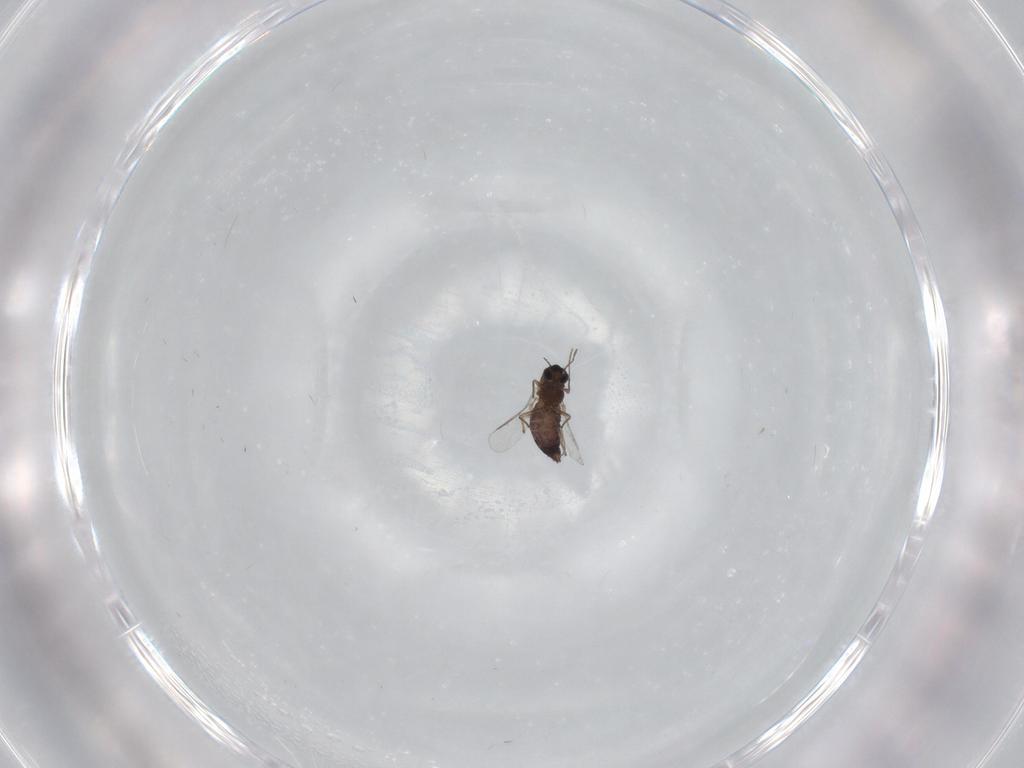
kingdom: Animalia
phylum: Arthropoda
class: Insecta
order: Diptera
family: Chironomidae
